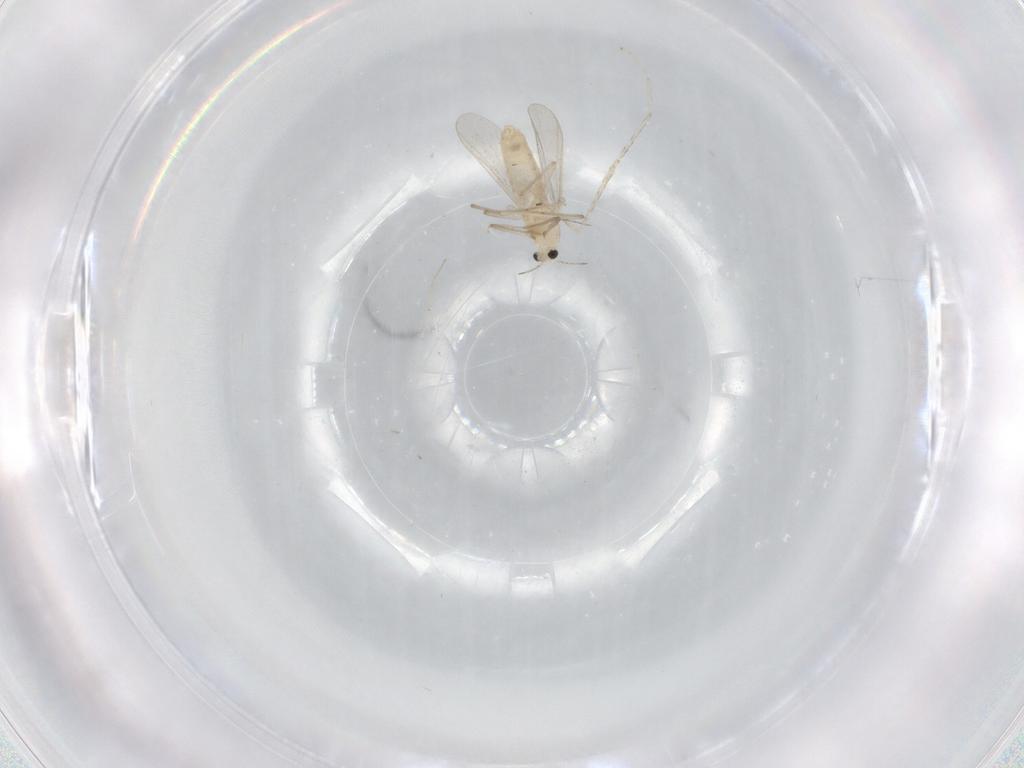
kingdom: Animalia
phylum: Arthropoda
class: Insecta
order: Diptera
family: Chironomidae
